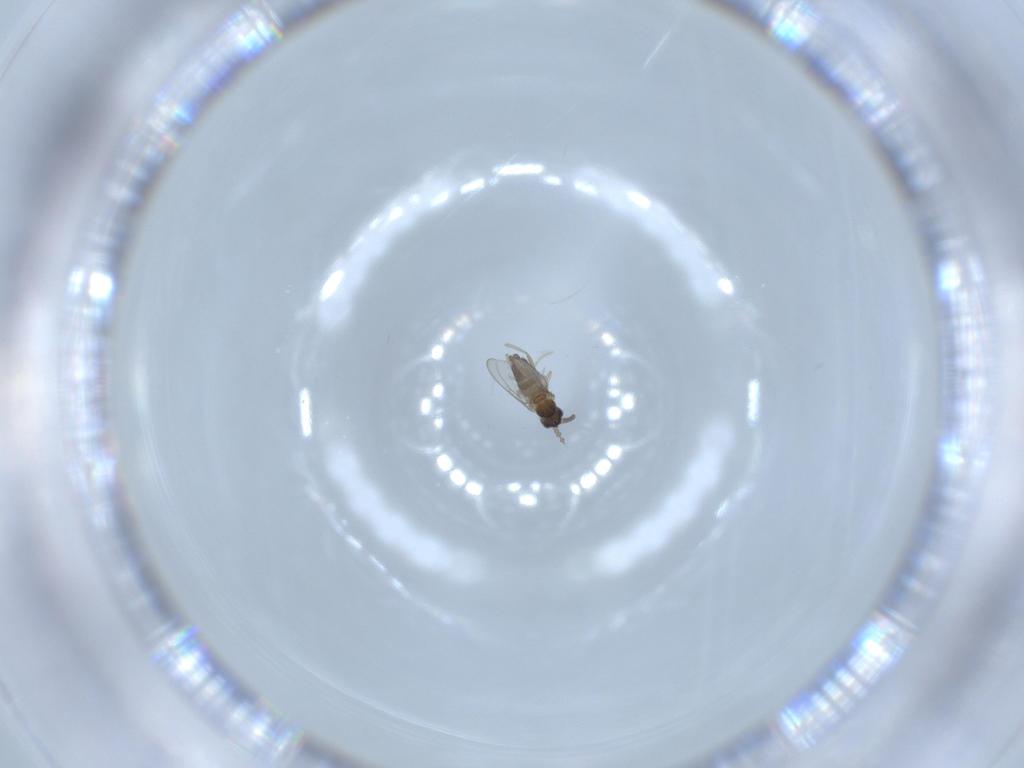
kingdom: Animalia
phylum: Arthropoda
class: Insecta
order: Diptera
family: Cecidomyiidae
